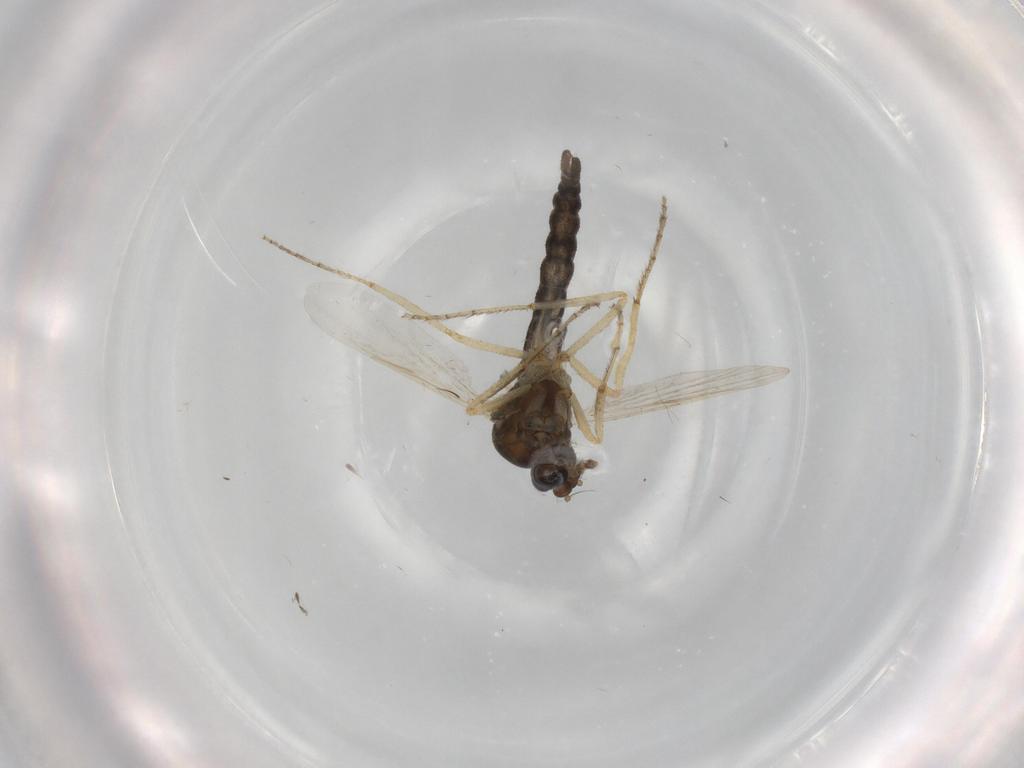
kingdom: Animalia
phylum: Arthropoda
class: Insecta
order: Diptera
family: Ceratopogonidae
